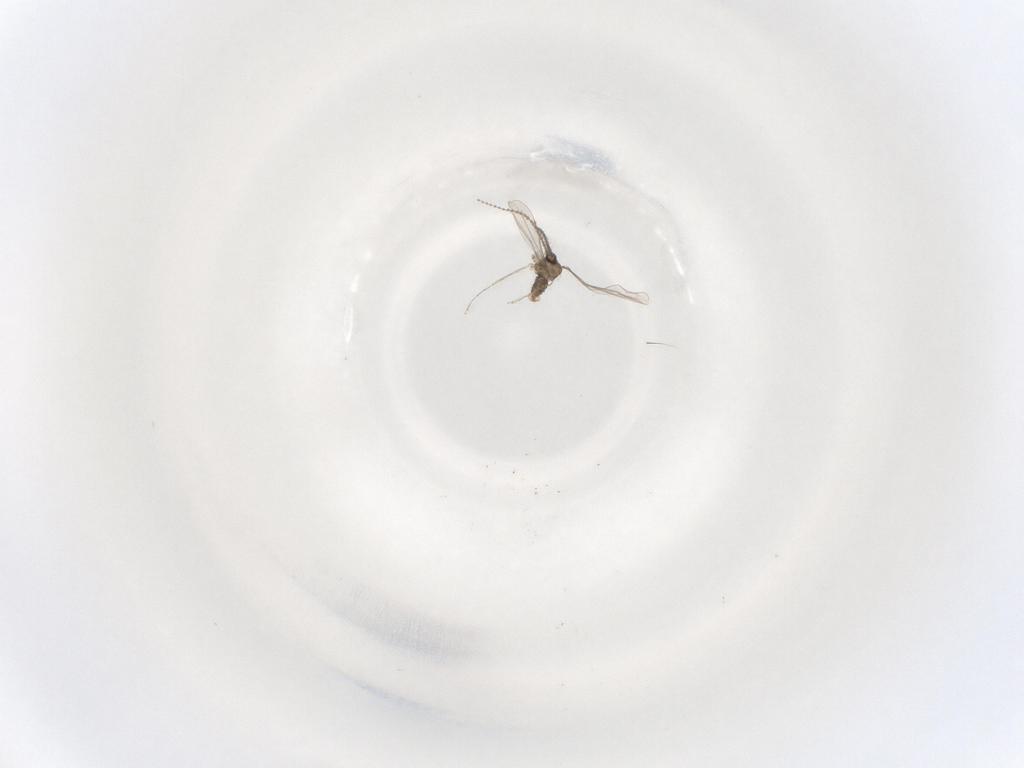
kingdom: Animalia
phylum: Arthropoda
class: Insecta
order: Diptera
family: Cecidomyiidae
